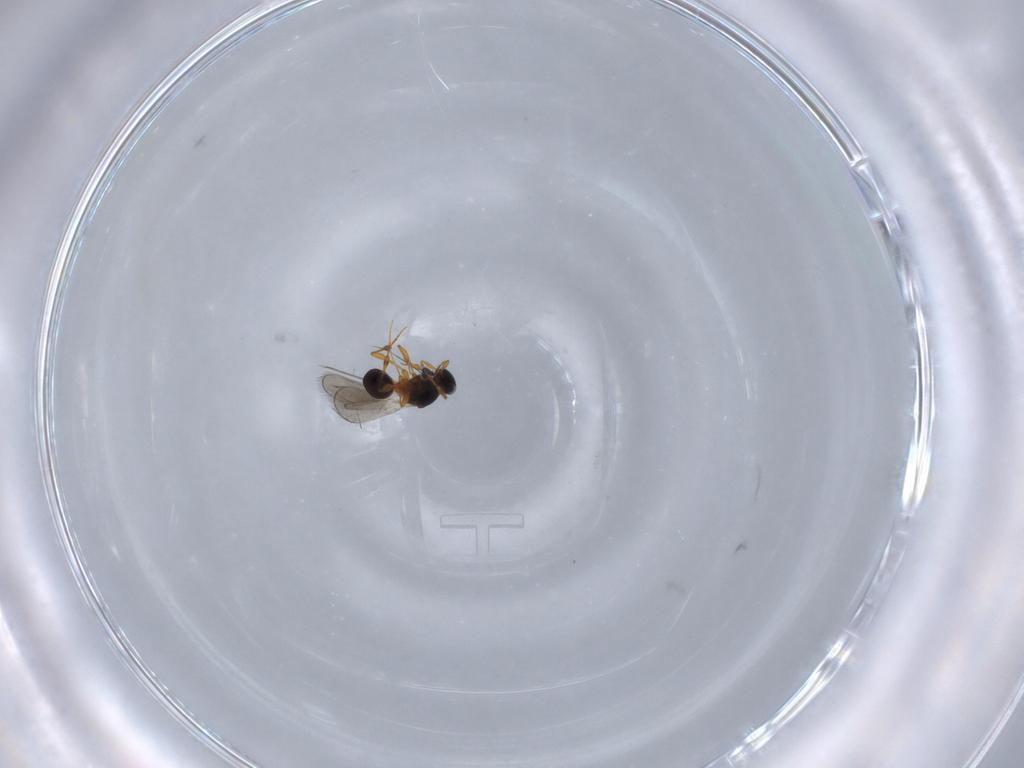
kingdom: Animalia
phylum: Arthropoda
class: Insecta
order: Hymenoptera
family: Platygastridae
